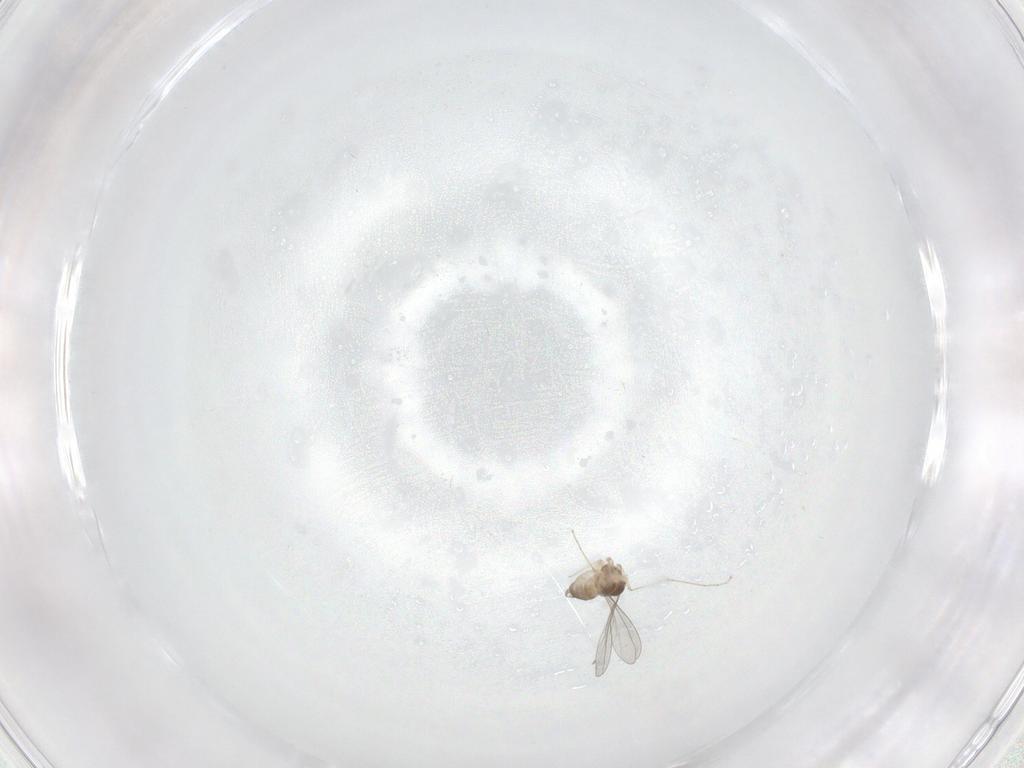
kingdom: Animalia
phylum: Arthropoda
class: Insecta
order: Diptera
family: Cecidomyiidae
